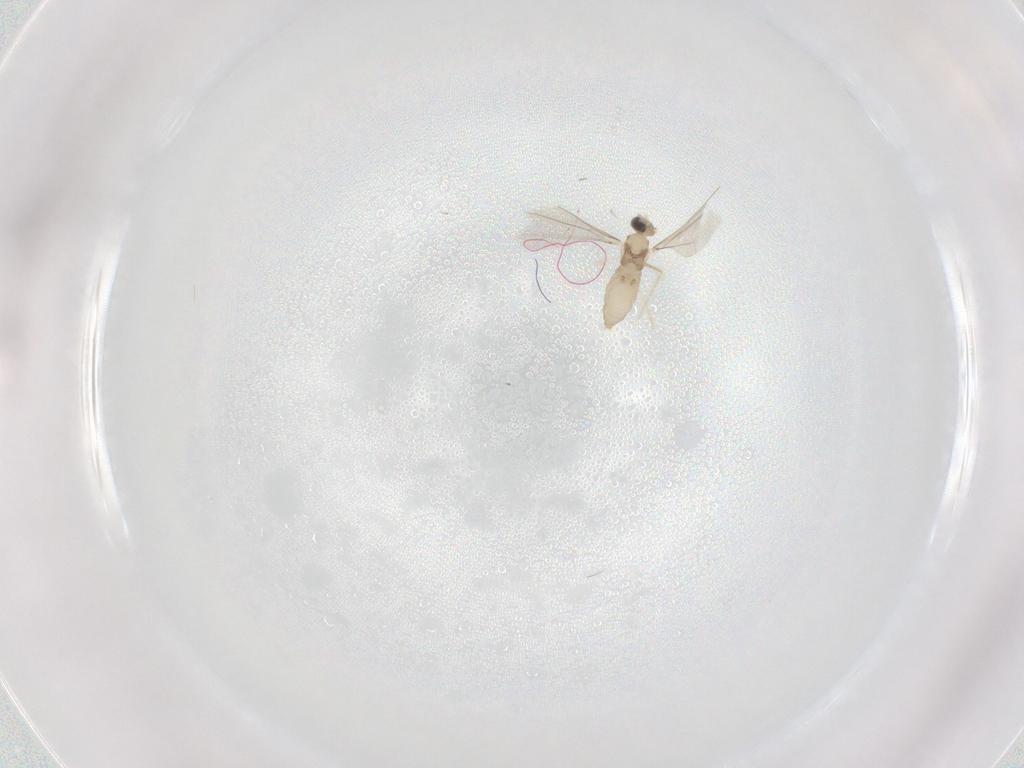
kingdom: Animalia
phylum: Arthropoda
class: Insecta
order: Diptera
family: Cecidomyiidae
